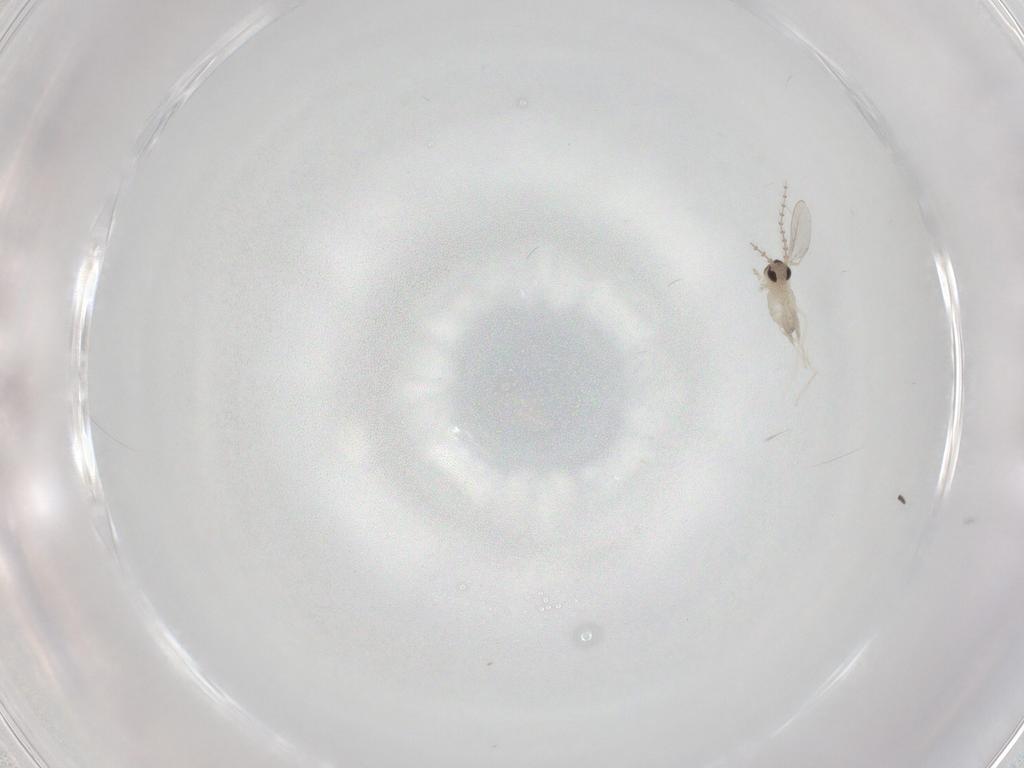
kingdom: Animalia
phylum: Arthropoda
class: Insecta
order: Diptera
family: Cecidomyiidae
